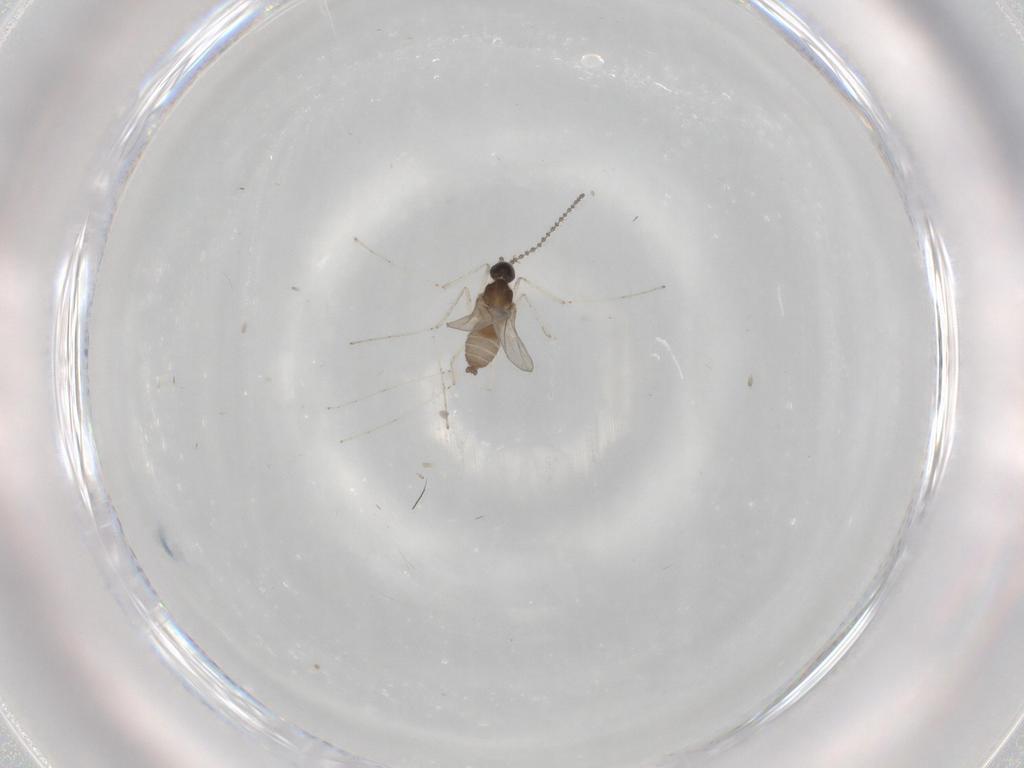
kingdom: Animalia
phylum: Arthropoda
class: Insecta
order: Diptera
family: Cecidomyiidae
